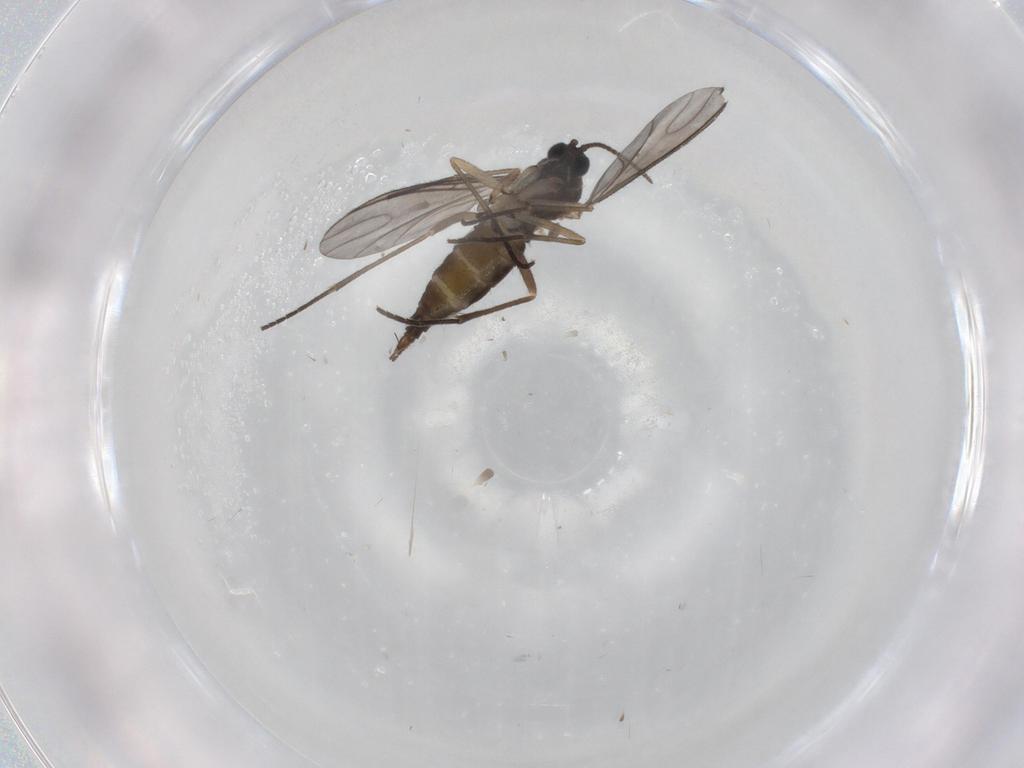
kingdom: Animalia
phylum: Arthropoda
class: Insecta
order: Diptera
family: Sciaridae
